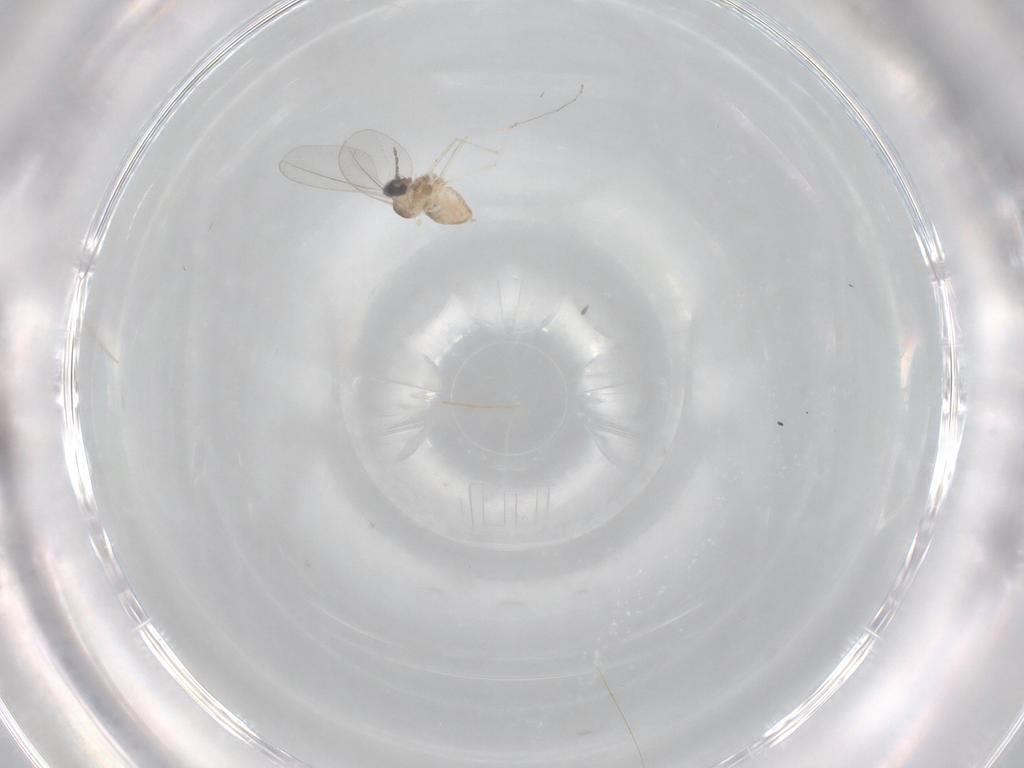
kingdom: Animalia
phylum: Arthropoda
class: Insecta
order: Diptera
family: Cecidomyiidae
